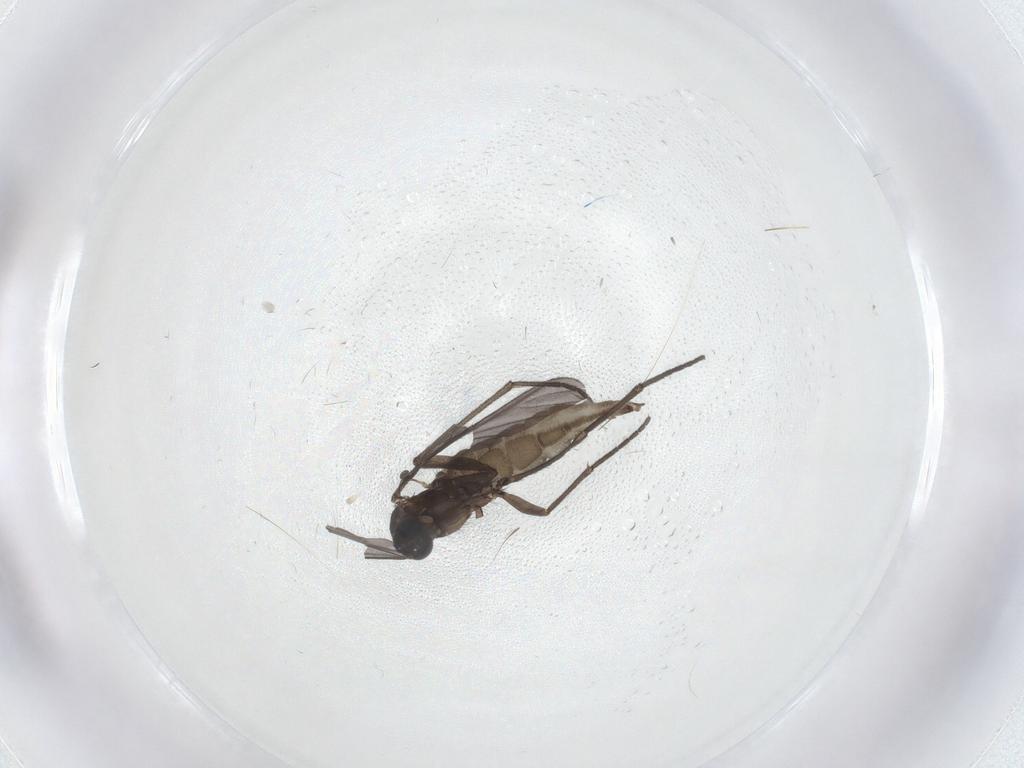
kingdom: Animalia
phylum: Arthropoda
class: Insecta
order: Diptera
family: Sciaridae
